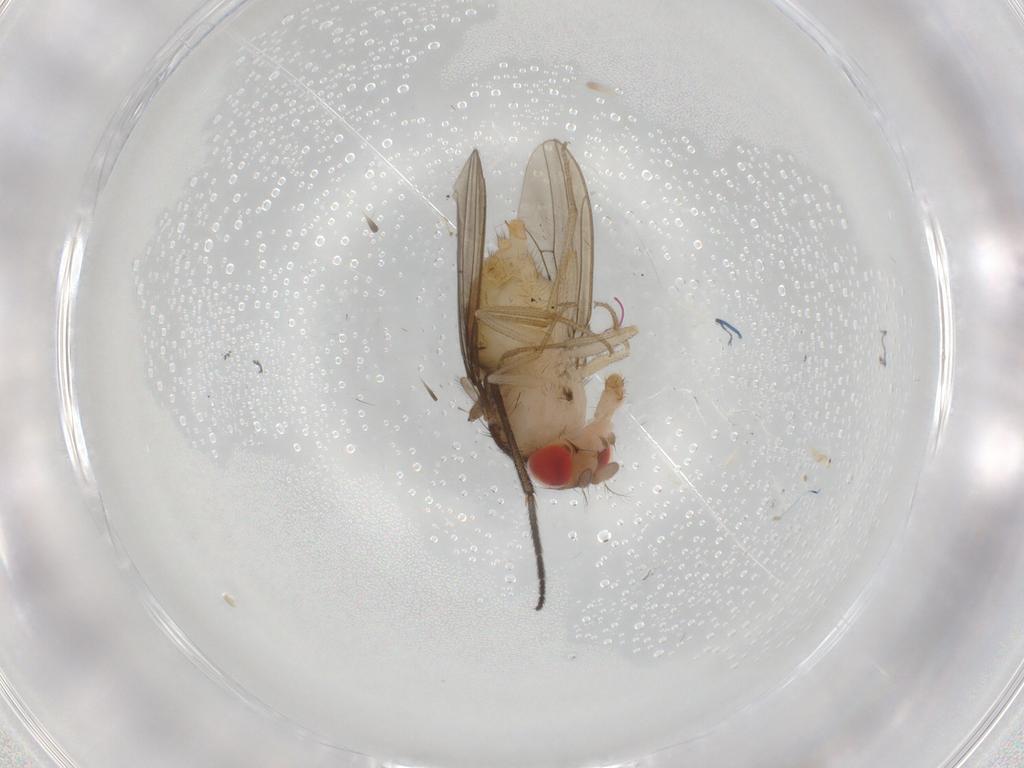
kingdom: Animalia
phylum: Arthropoda
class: Insecta
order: Diptera
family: Drosophilidae
